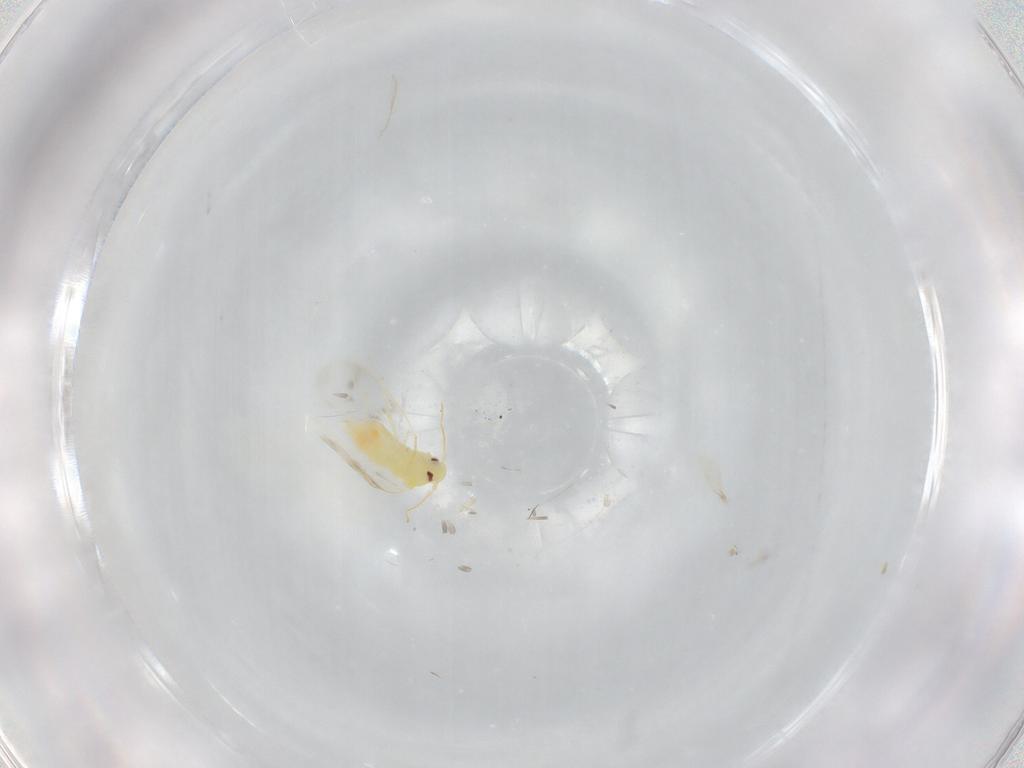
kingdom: Animalia
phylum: Arthropoda
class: Insecta
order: Hemiptera
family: Aleyrodidae
